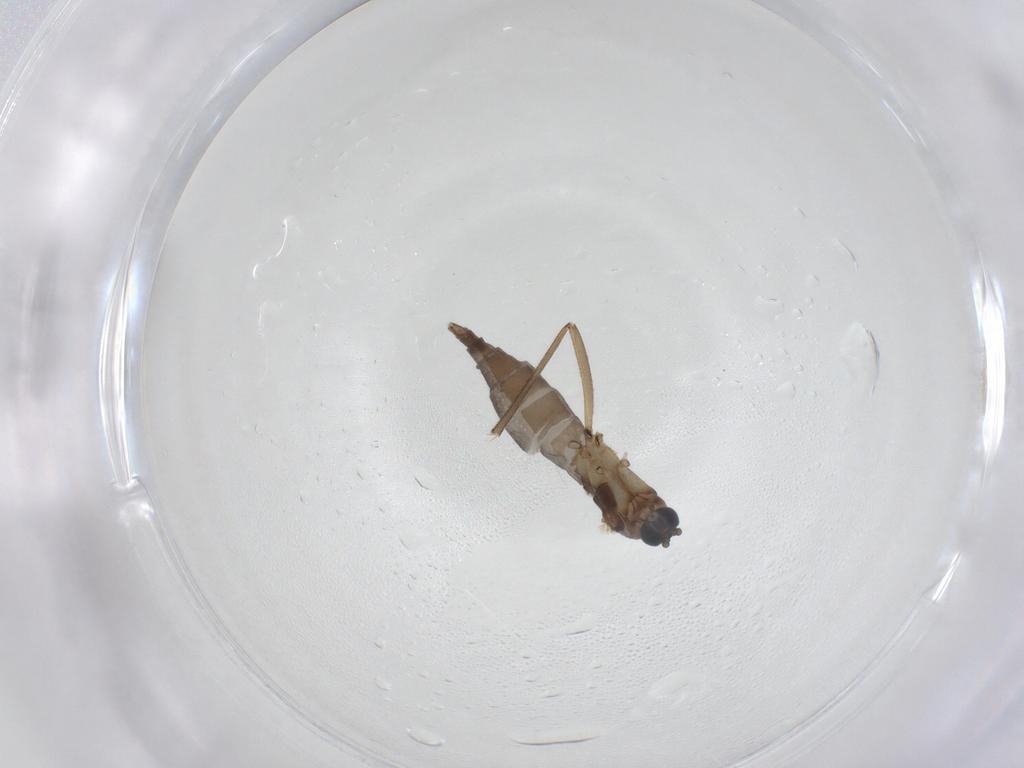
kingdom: Animalia
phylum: Arthropoda
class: Insecta
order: Diptera
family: Sciaridae
